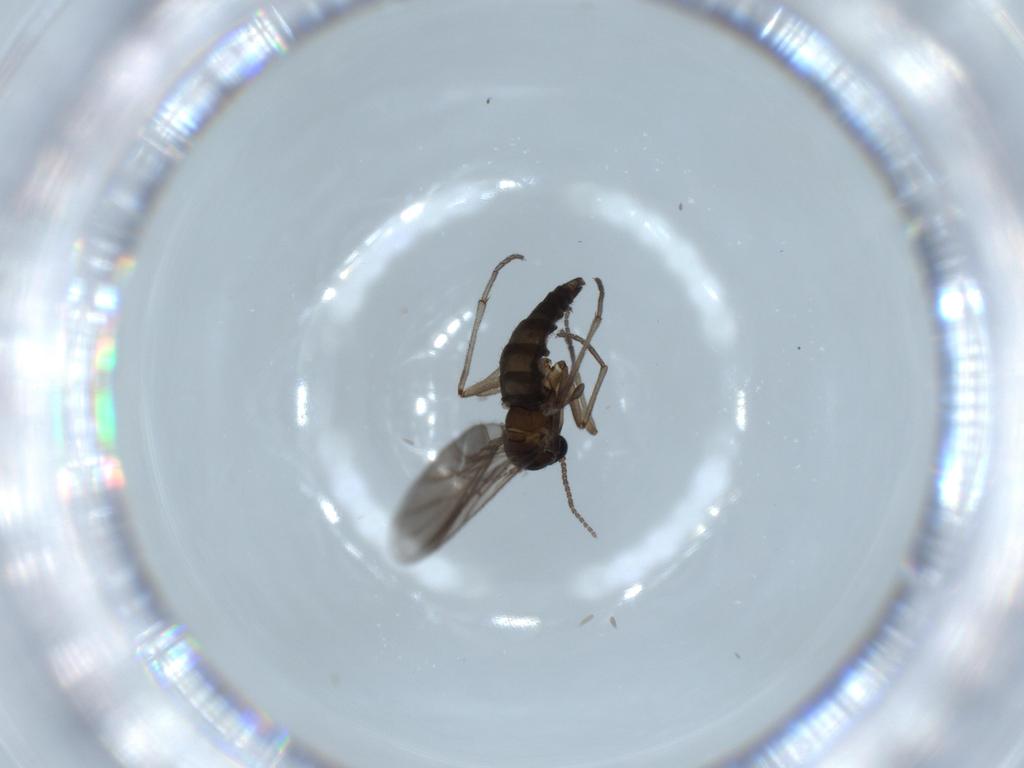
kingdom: Animalia
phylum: Arthropoda
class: Insecta
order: Diptera
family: Sciaridae
